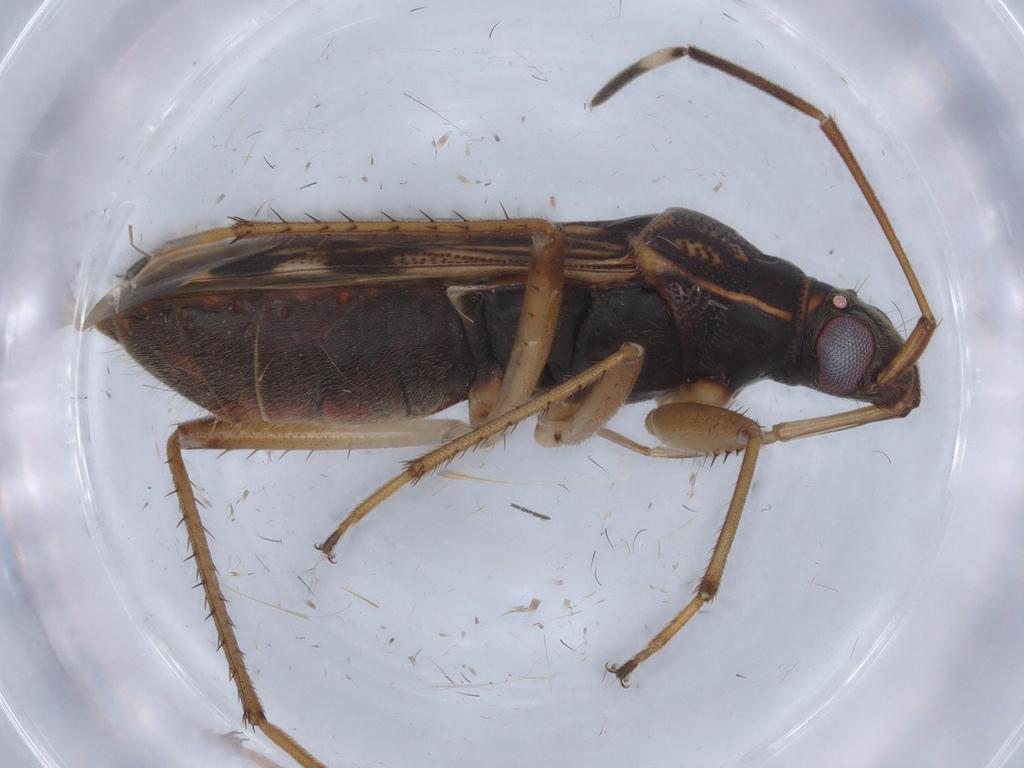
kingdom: Animalia
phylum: Arthropoda
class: Insecta
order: Hemiptera
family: Rhyparochromidae
